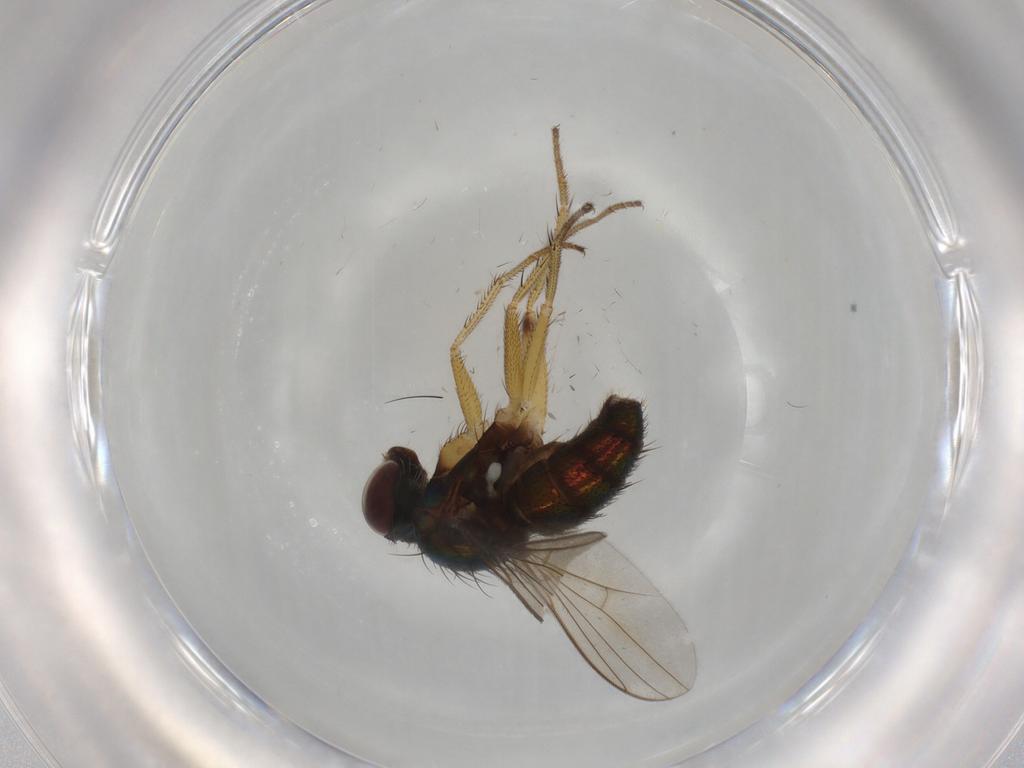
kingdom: Animalia
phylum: Arthropoda
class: Insecta
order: Diptera
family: Dolichopodidae
